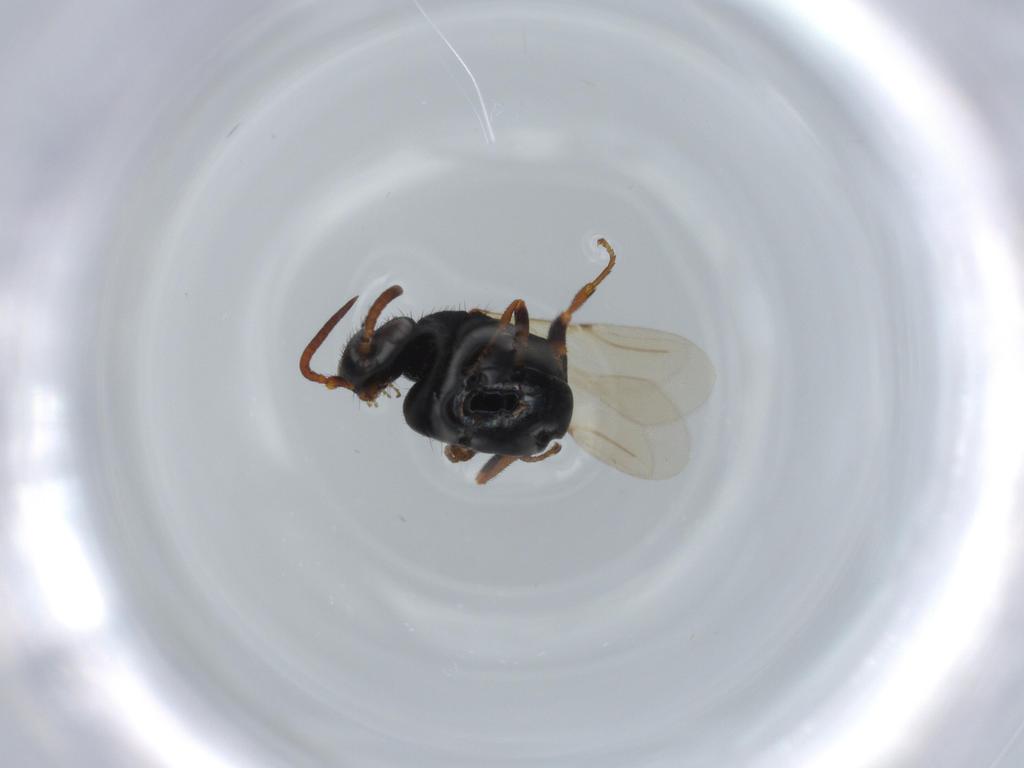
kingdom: Animalia
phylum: Arthropoda
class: Insecta
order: Hymenoptera
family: Bethylidae
